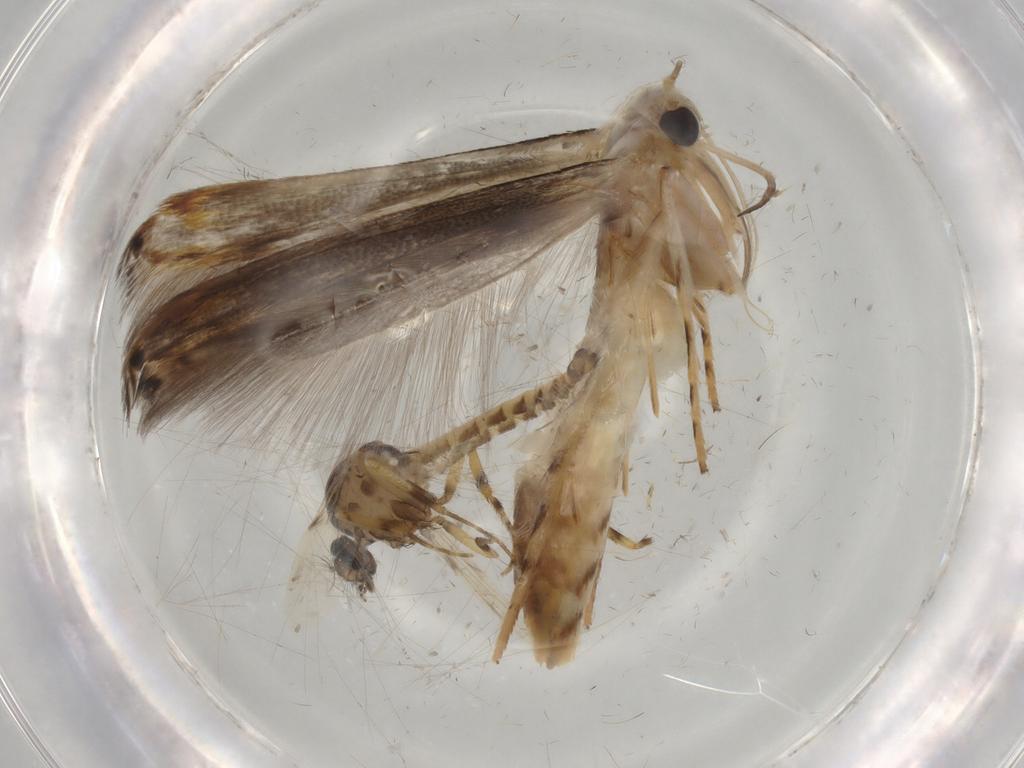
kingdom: Animalia
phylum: Arthropoda
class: Insecta
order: Lepidoptera
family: Gelechiidae
